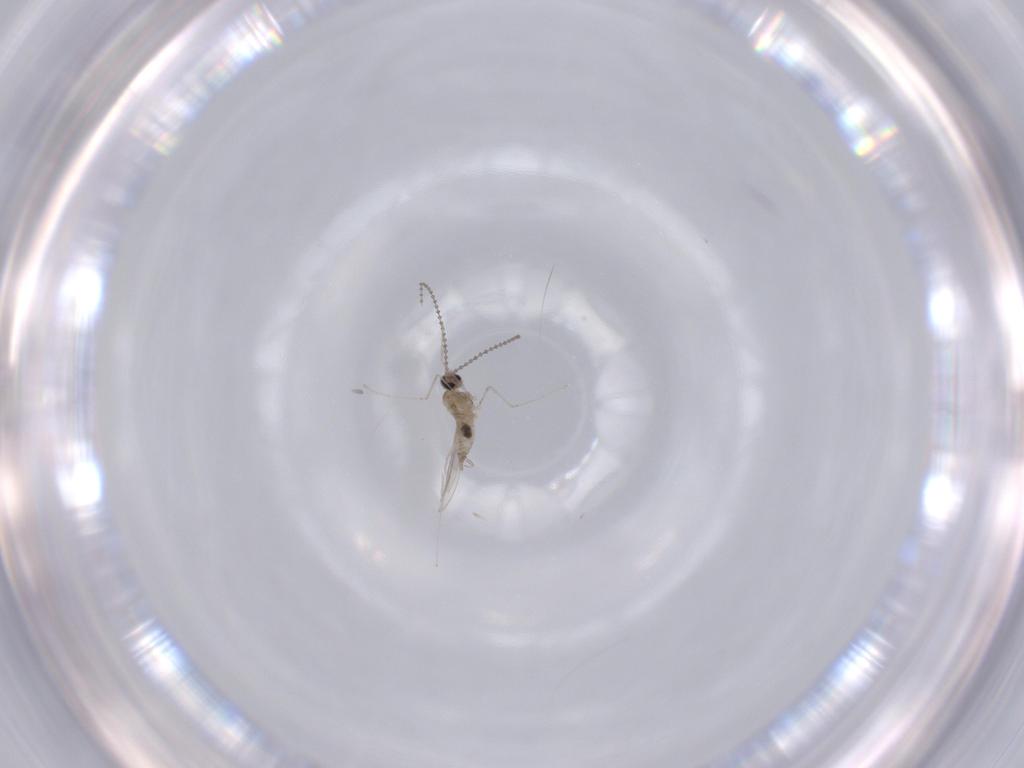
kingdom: Animalia
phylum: Arthropoda
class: Insecta
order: Diptera
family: Cecidomyiidae
